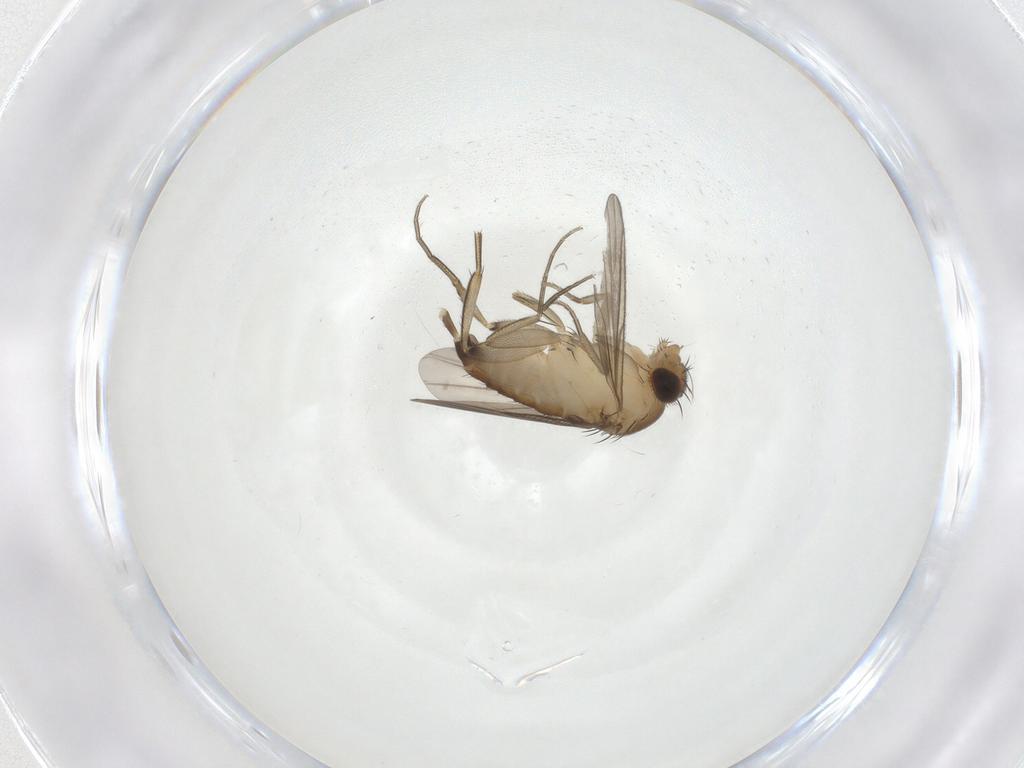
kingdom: Animalia
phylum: Arthropoda
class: Insecta
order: Diptera
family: Phoridae
